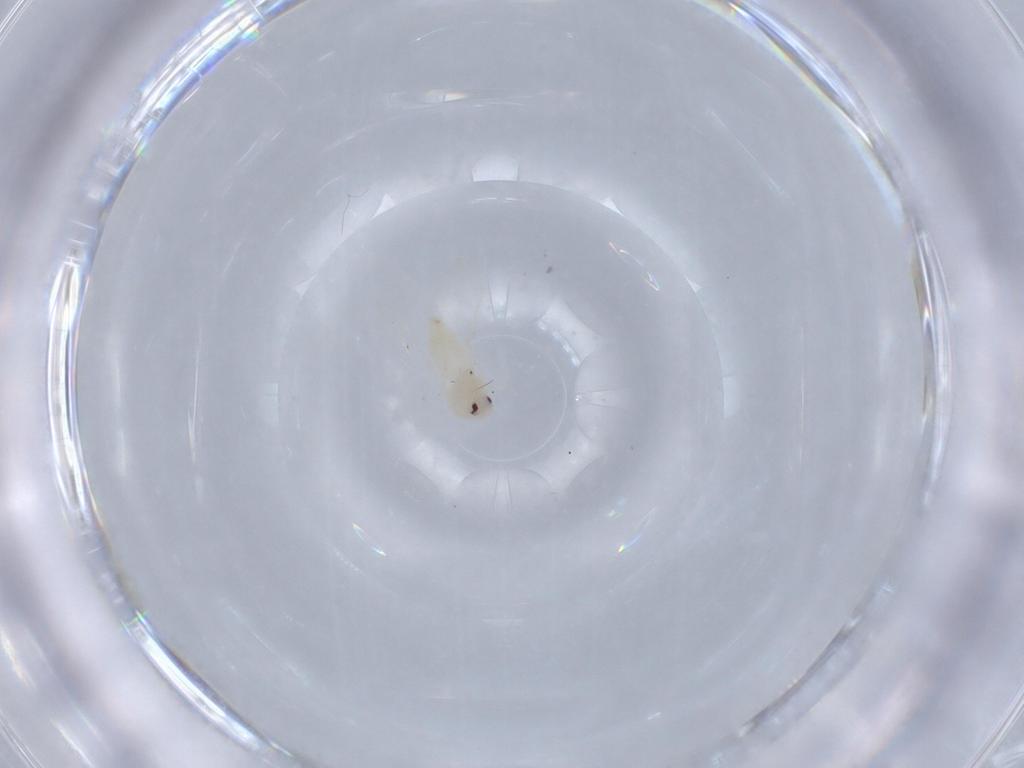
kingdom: Animalia
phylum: Arthropoda
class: Insecta
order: Hemiptera
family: Aleyrodidae
